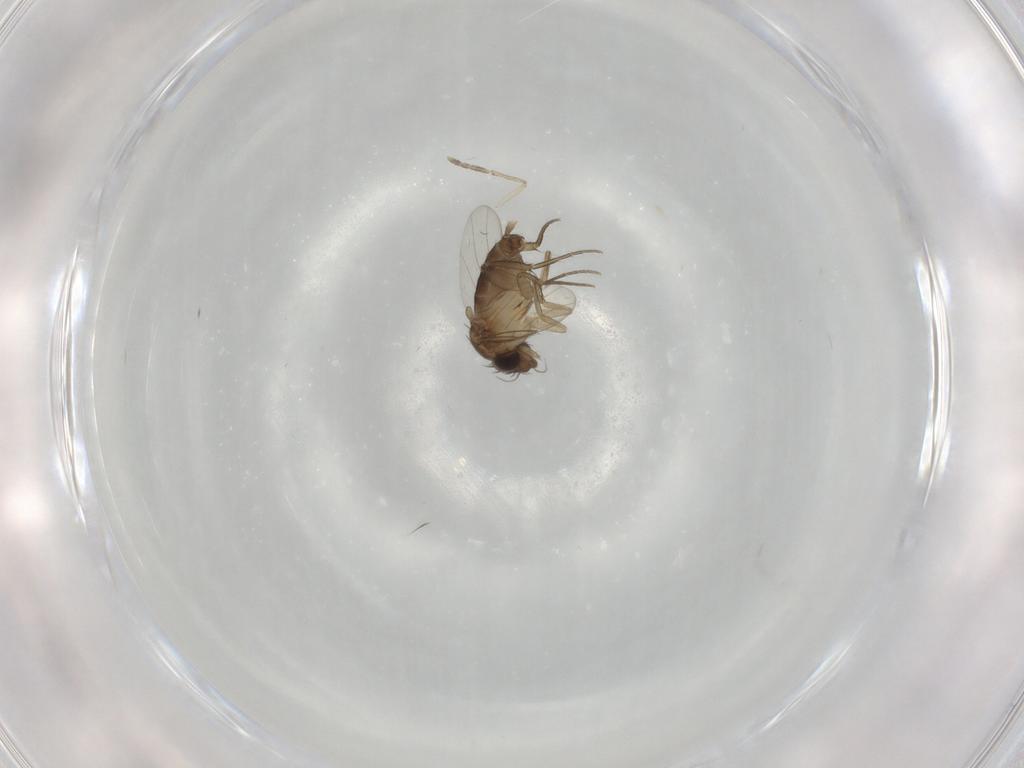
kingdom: Animalia
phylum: Arthropoda
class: Insecta
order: Diptera
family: Phoridae
